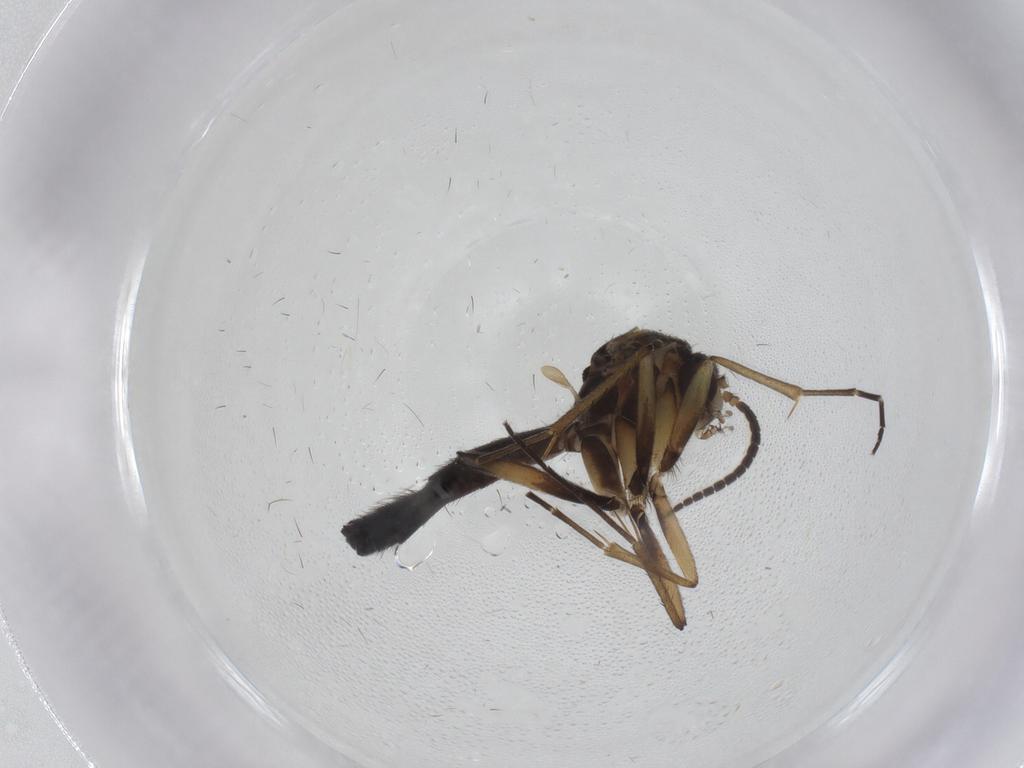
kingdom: Animalia
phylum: Arthropoda
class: Insecta
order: Diptera
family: Mycetophilidae
